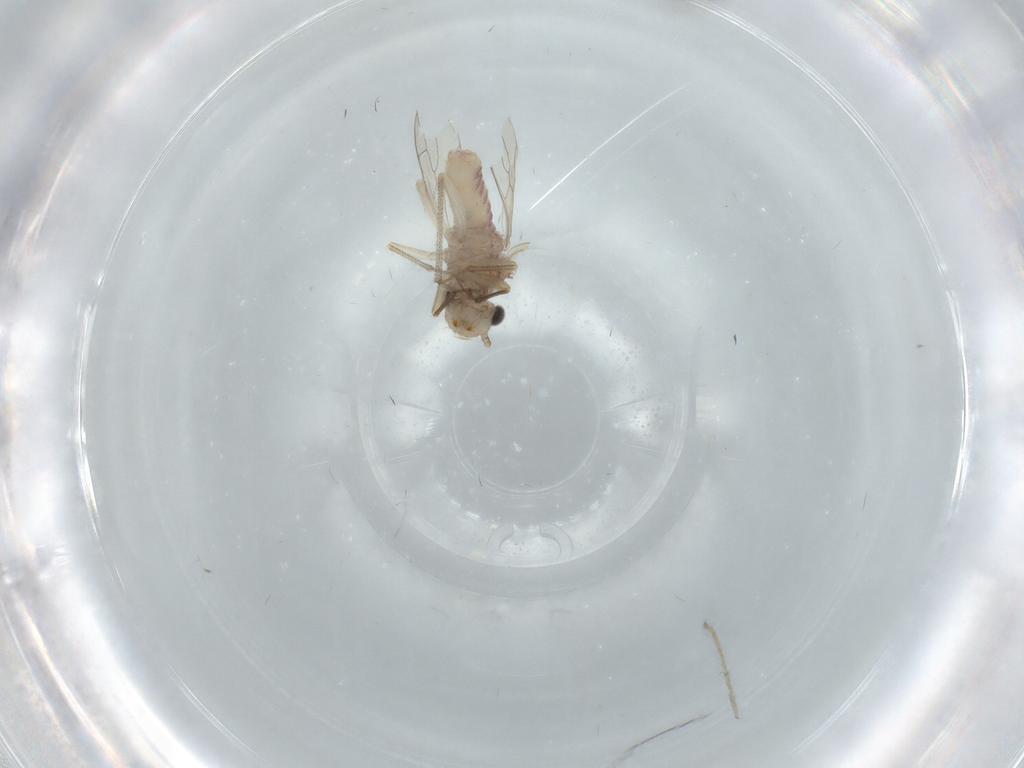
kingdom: Animalia
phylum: Arthropoda
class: Insecta
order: Psocodea
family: Caeciliusidae
